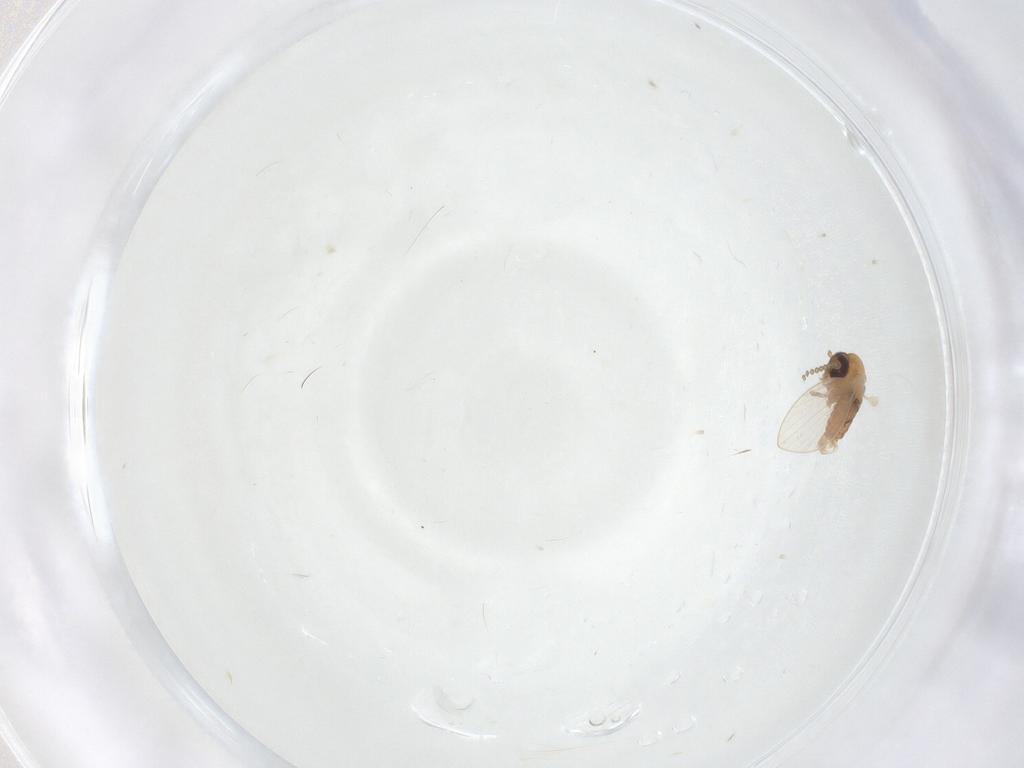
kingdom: Animalia
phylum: Arthropoda
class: Insecta
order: Diptera
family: Psychodidae
